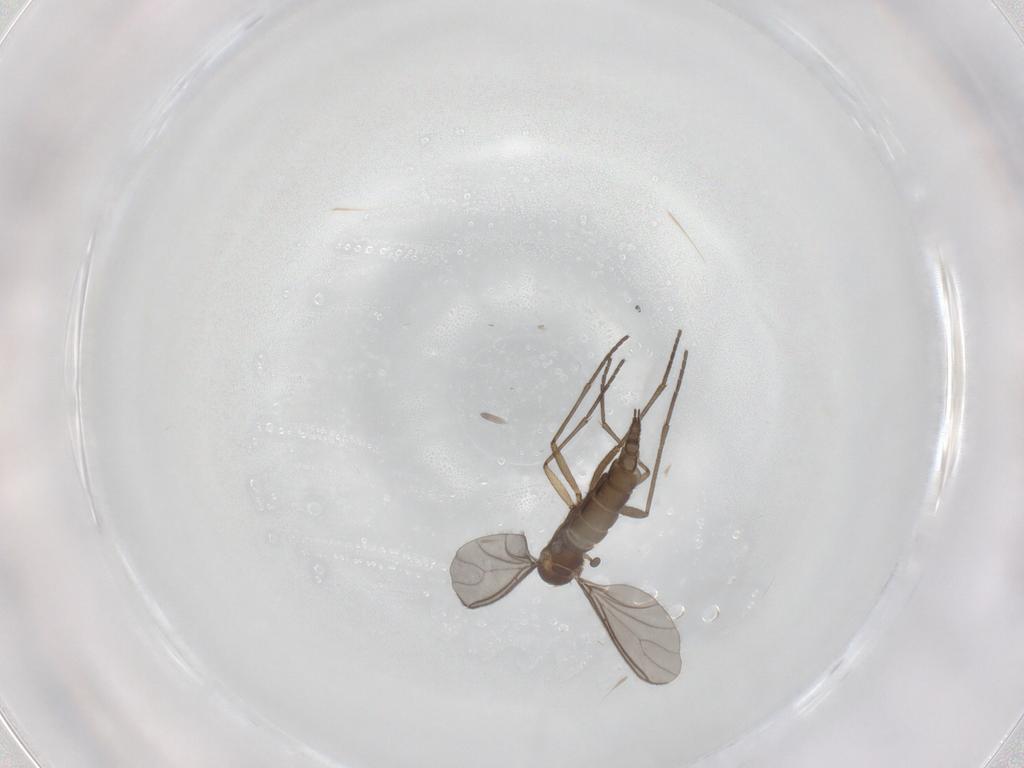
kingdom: Animalia
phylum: Arthropoda
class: Insecta
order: Diptera
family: Sciaridae
